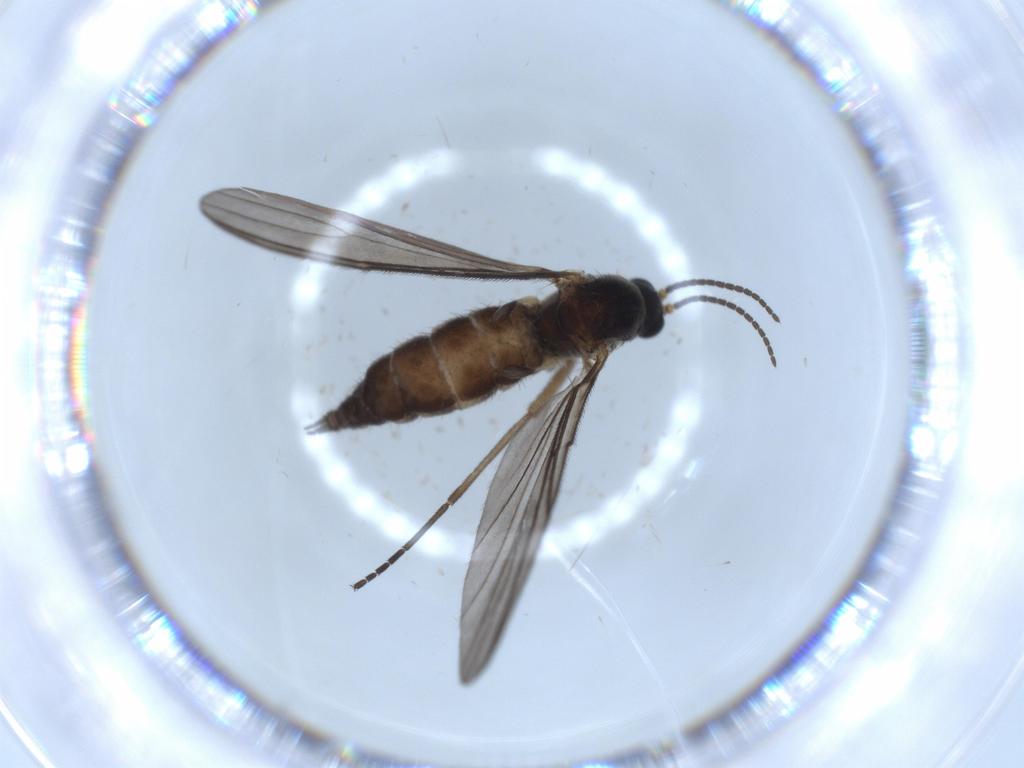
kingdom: Animalia
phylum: Arthropoda
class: Insecta
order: Diptera
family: Sciaridae
